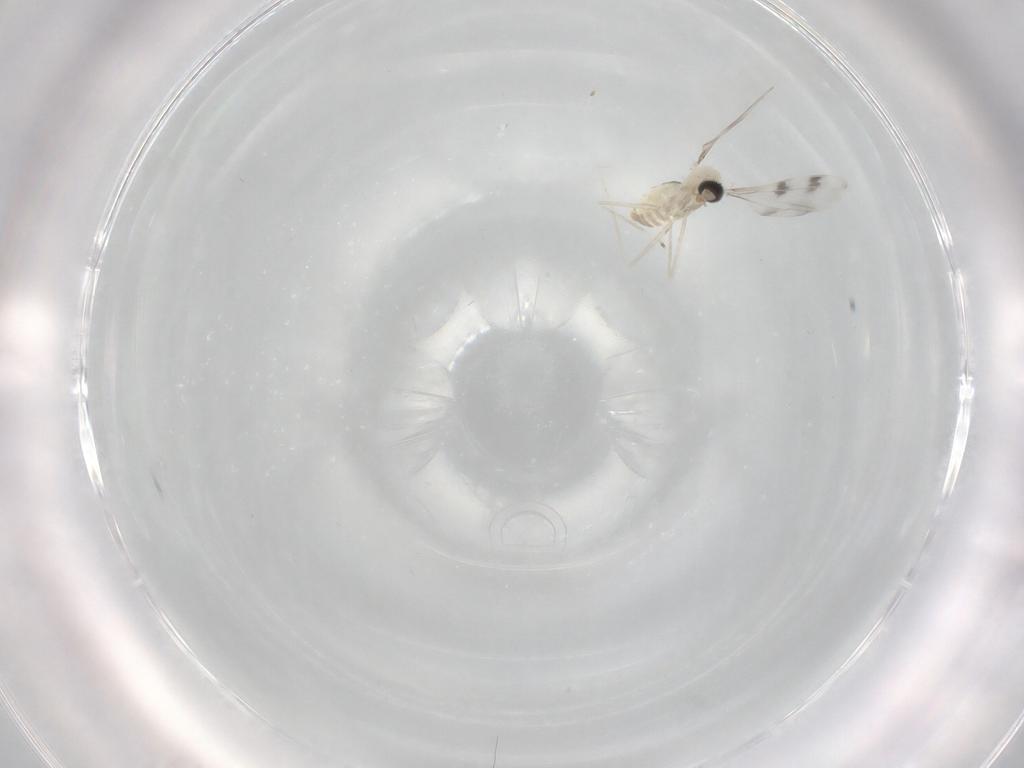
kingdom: Animalia
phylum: Arthropoda
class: Insecta
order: Diptera
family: Cecidomyiidae
